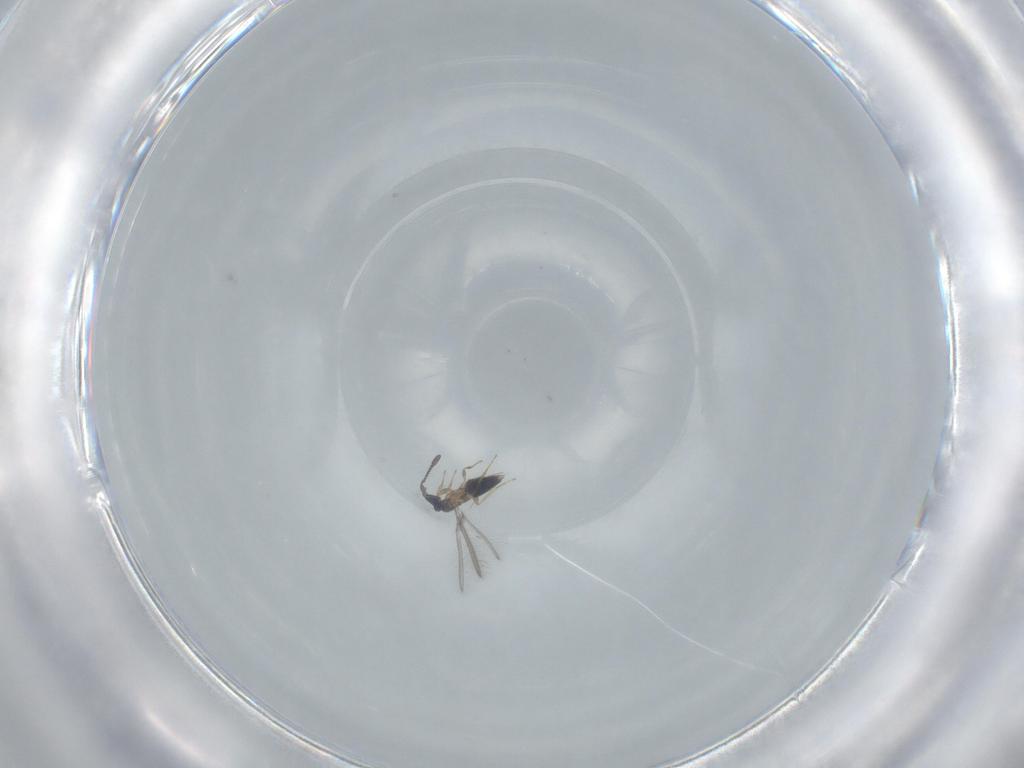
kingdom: Animalia
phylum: Arthropoda
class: Insecta
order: Hymenoptera
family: Mymaridae
